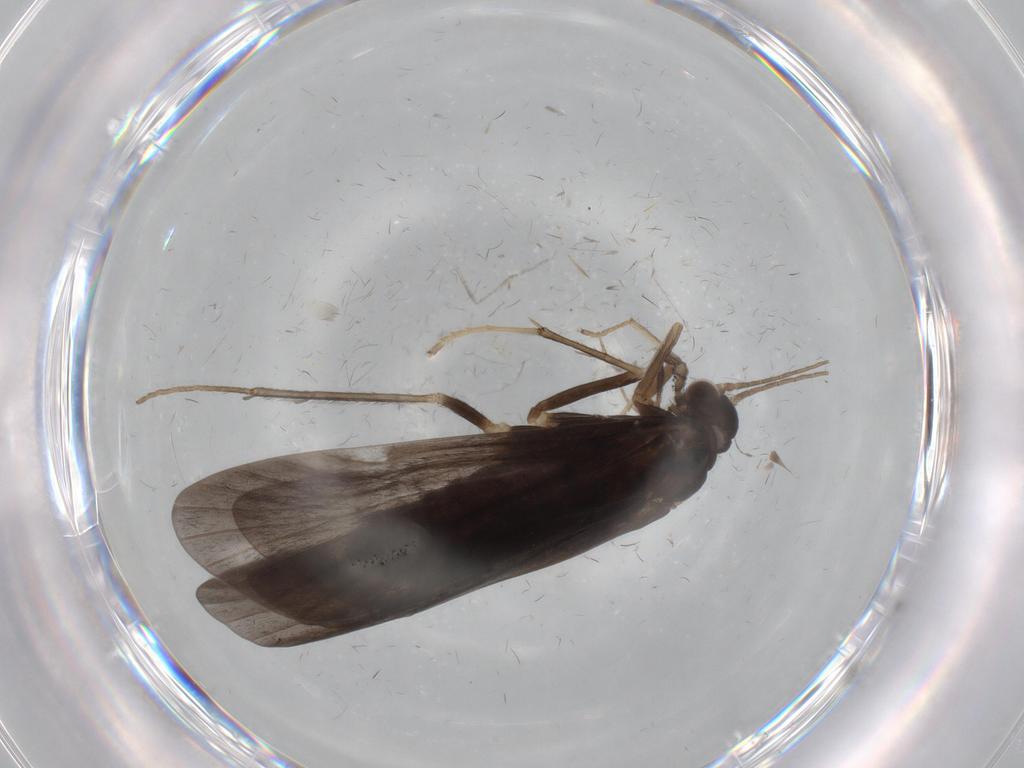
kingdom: Animalia
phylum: Arthropoda
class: Insecta
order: Trichoptera
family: Hydropsychidae
